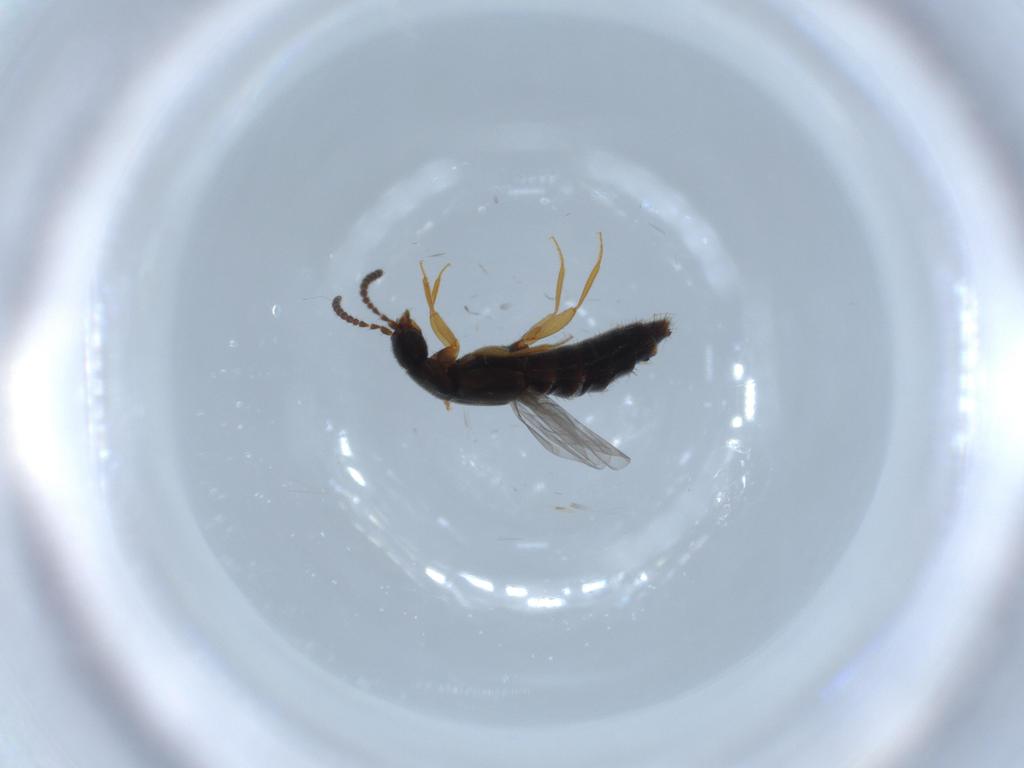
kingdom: Animalia
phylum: Arthropoda
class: Insecta
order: Coleoptera
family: Staphylinidae
